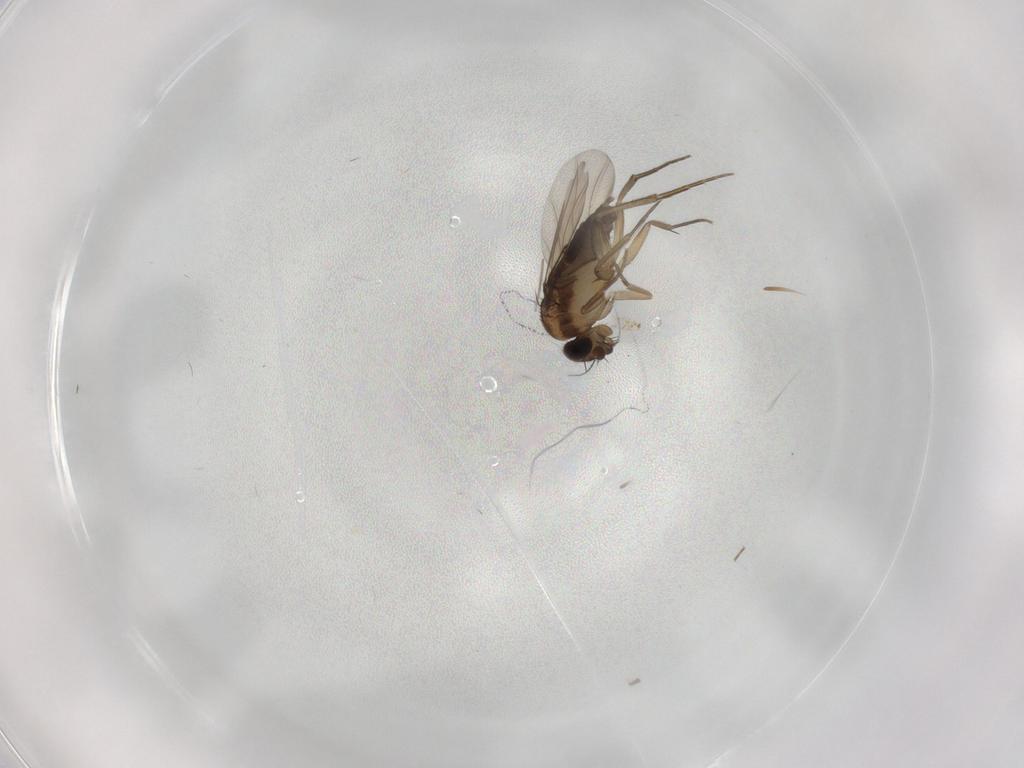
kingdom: Animalia
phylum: Arthropoda
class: Insecta
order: Diptera
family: Phoridae
